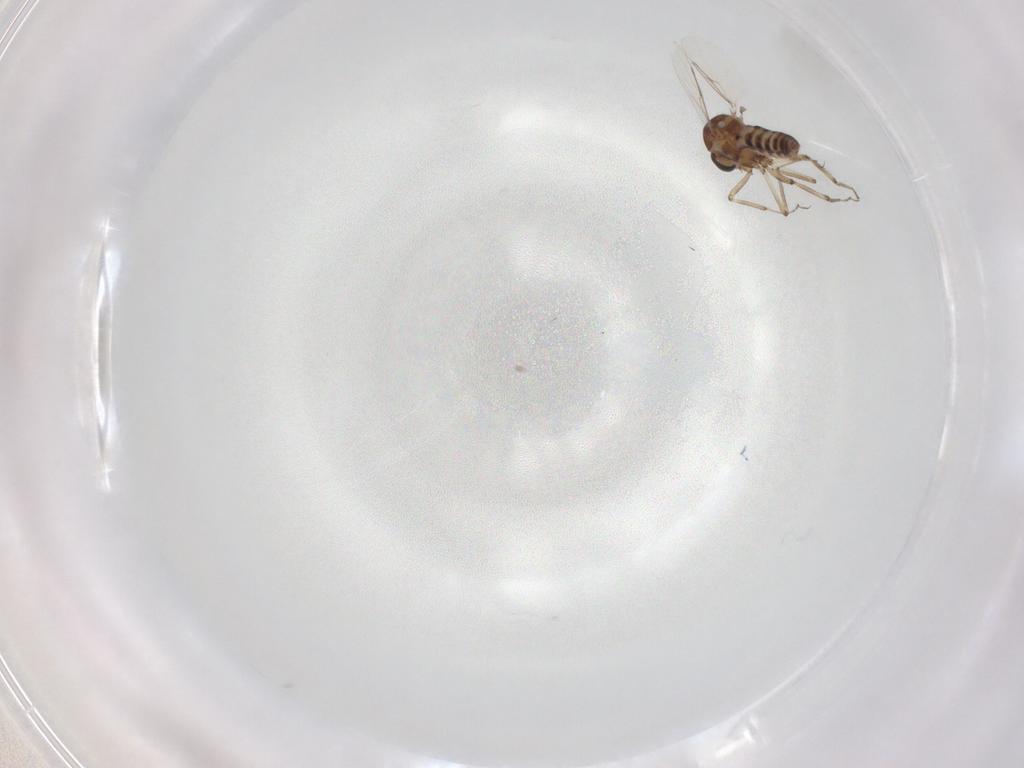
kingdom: Animalia
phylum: Arthropoda
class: Insecta
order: Diptera
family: Ceratopogonidae
